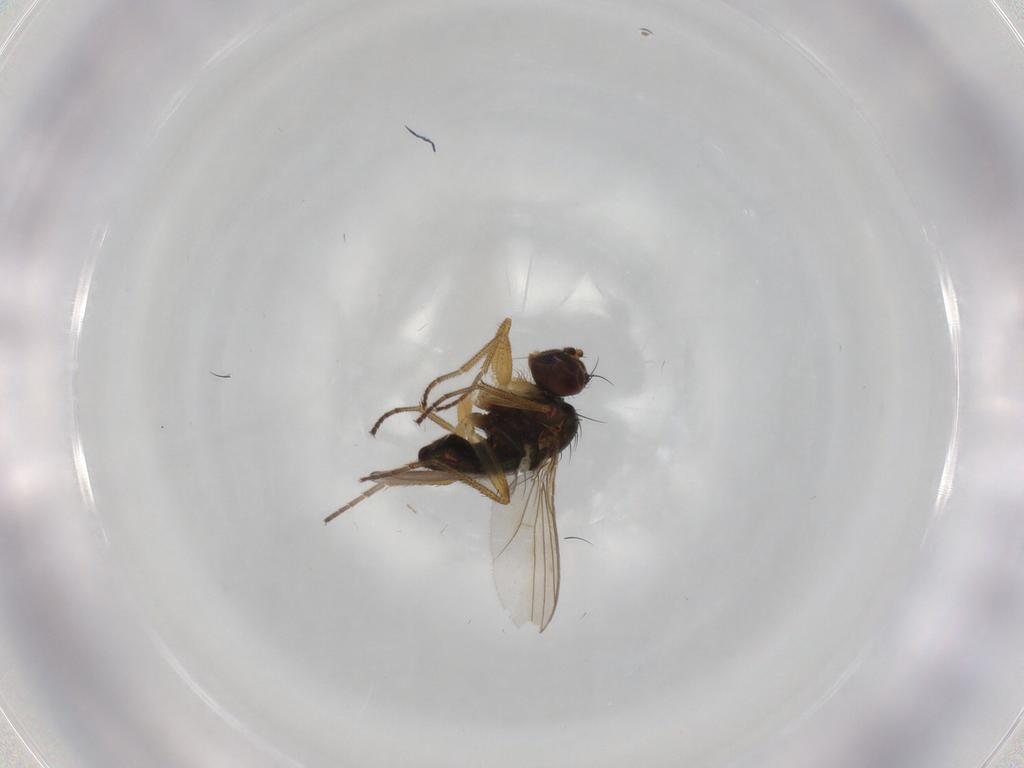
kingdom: Animalia
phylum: Arthropoda
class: Insecta
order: Diptera
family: Dolichopodidae
